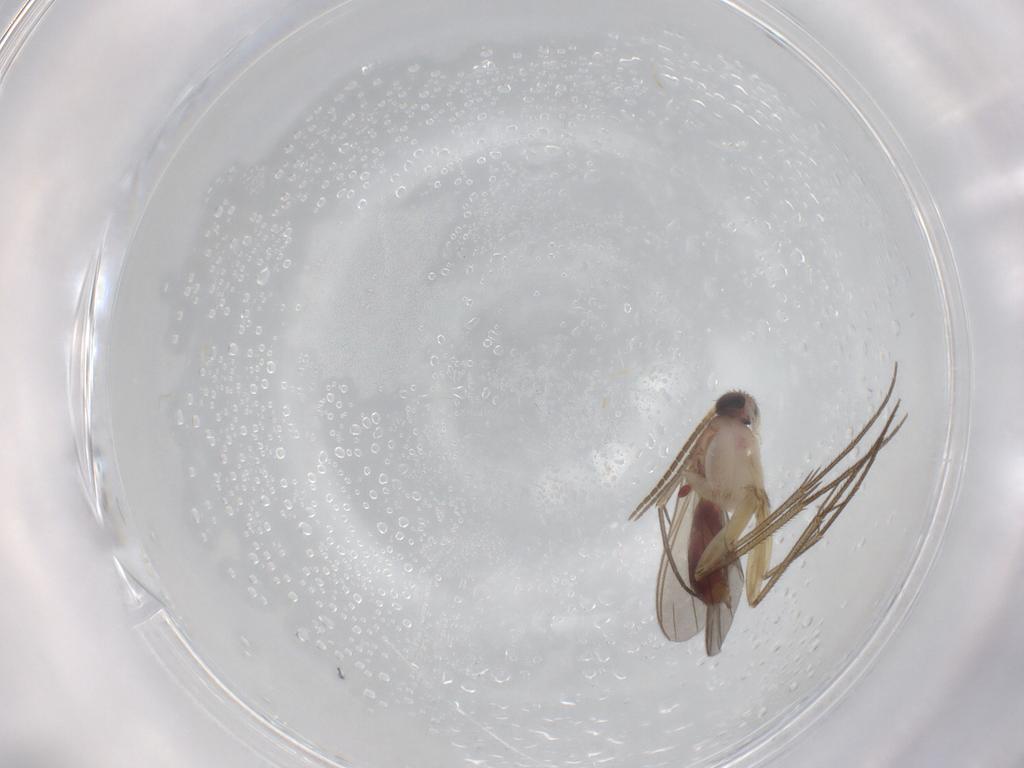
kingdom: Animalia
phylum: Arthropoda
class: Insecta
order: Diptera
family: Mycetophilidae
